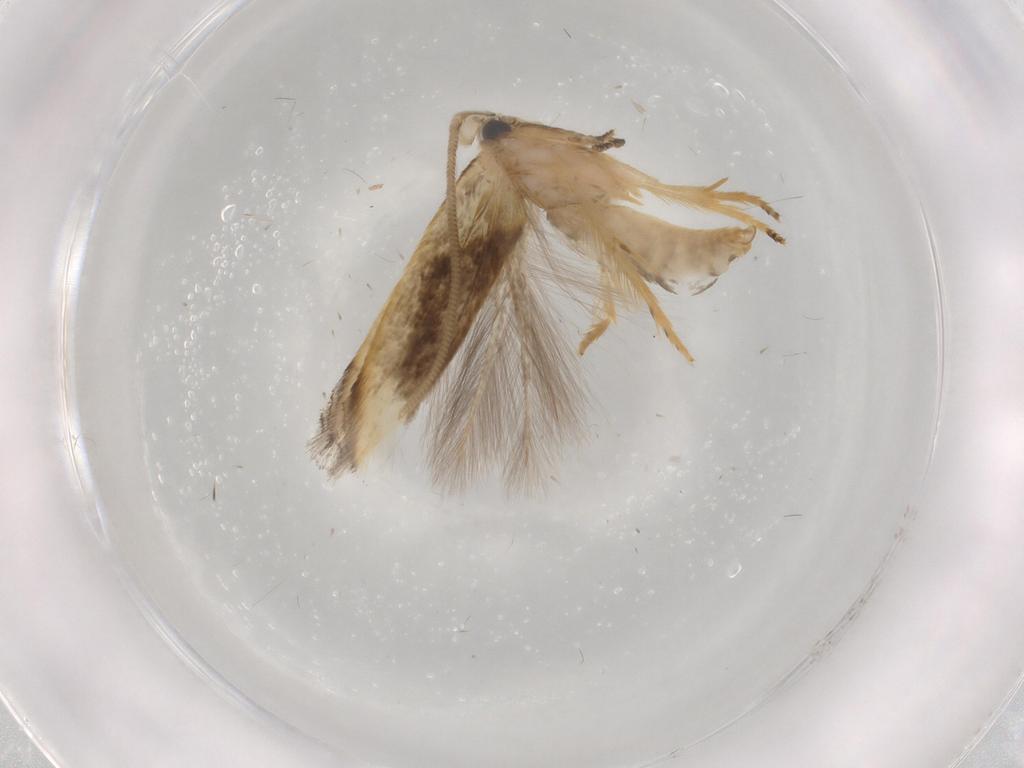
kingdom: Animalia
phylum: Arthropoda
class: Insecta
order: Lepidoptera
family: Opostegidae
